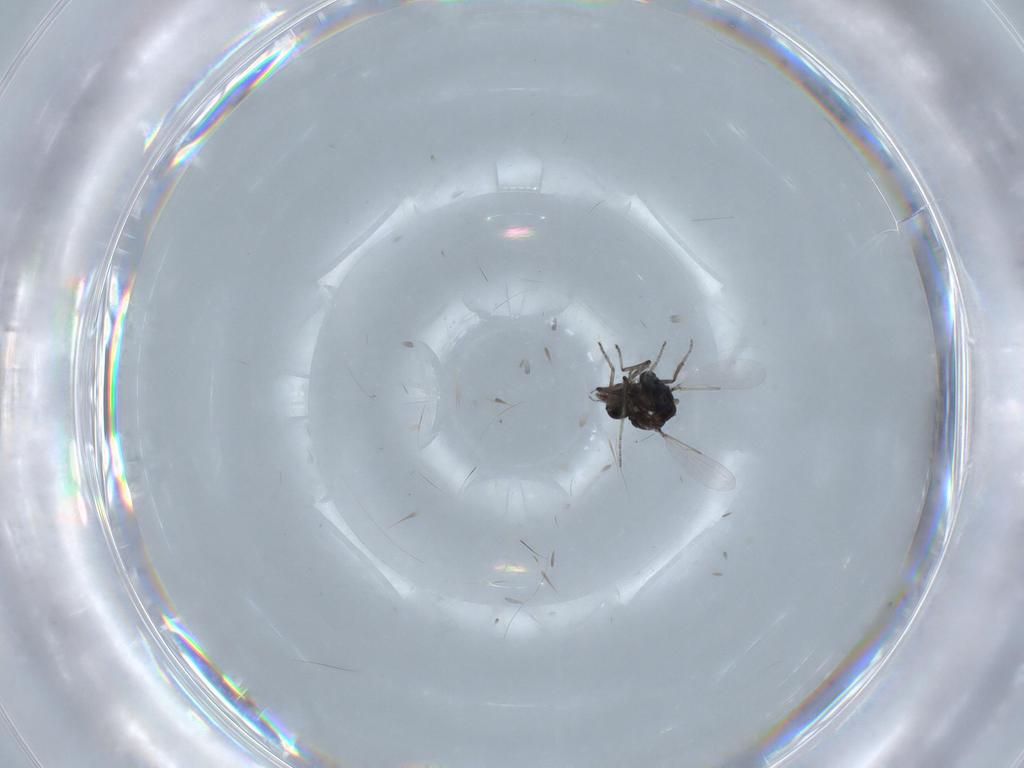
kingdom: Animalia
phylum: Arthropoda
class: Insecta
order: Diptera
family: Ceratopogonidae
